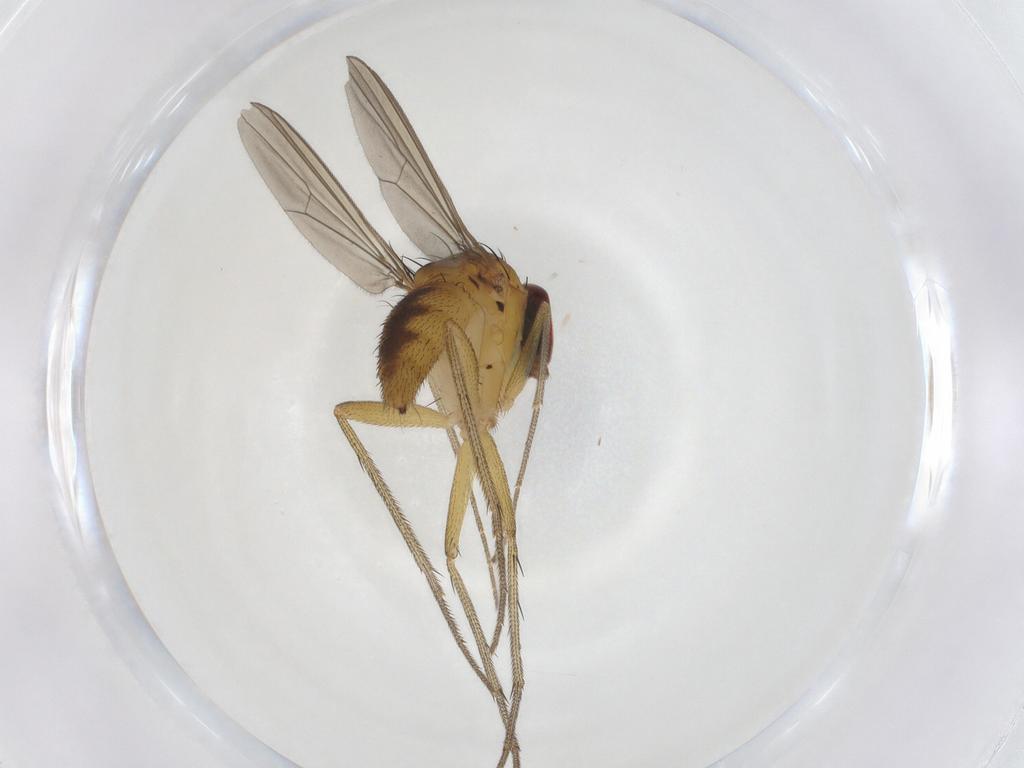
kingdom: Animalia
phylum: Arthropoda
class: Insecta
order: Diptera
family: Dolichopodidae
